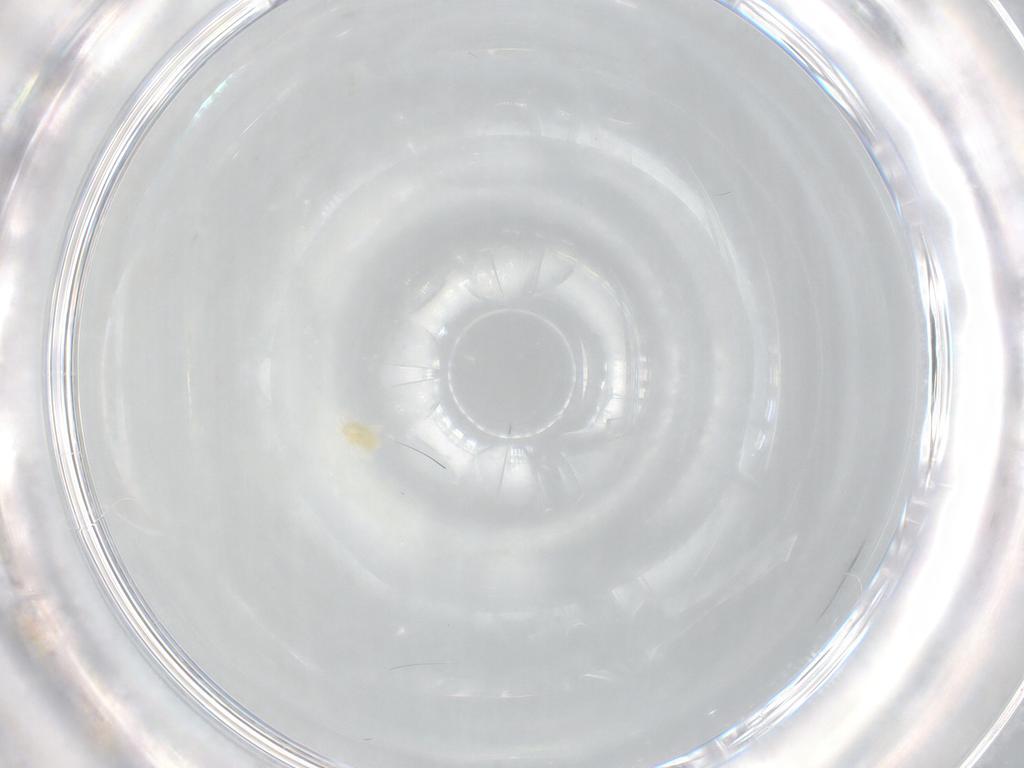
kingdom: Animalia
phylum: Arthropoda
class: Arachnida
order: Trombidiformes
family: Eupodidae
